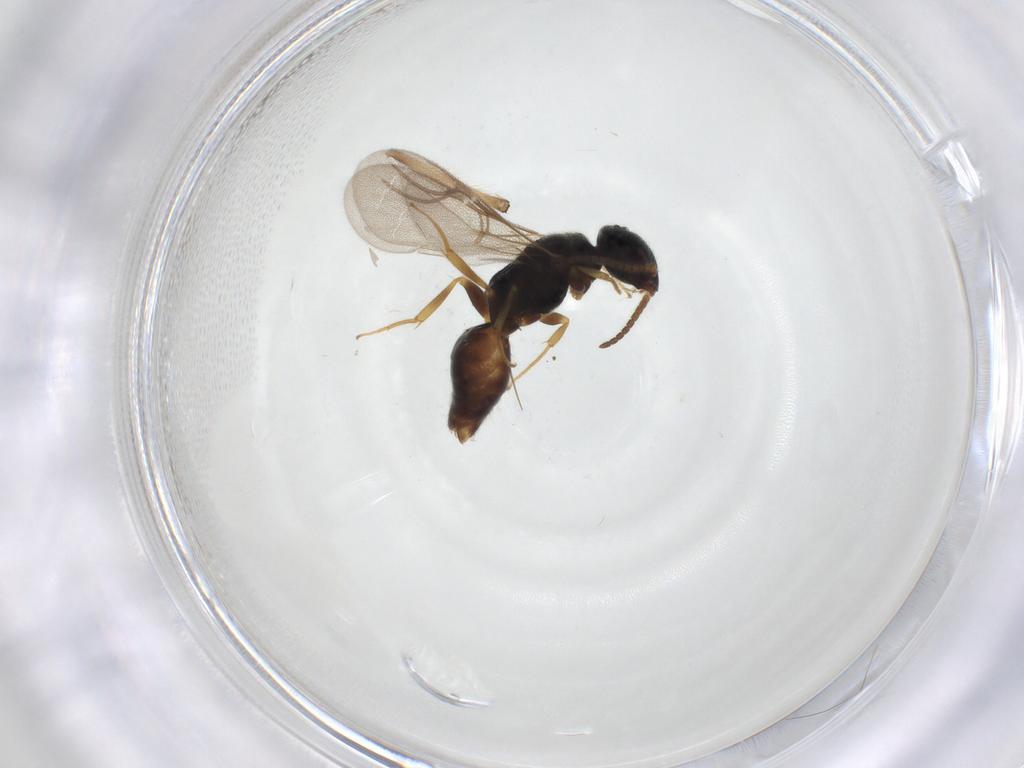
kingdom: Animalia
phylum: Arthropoda
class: Insecta
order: Hymenoptera
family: Bethylidae
